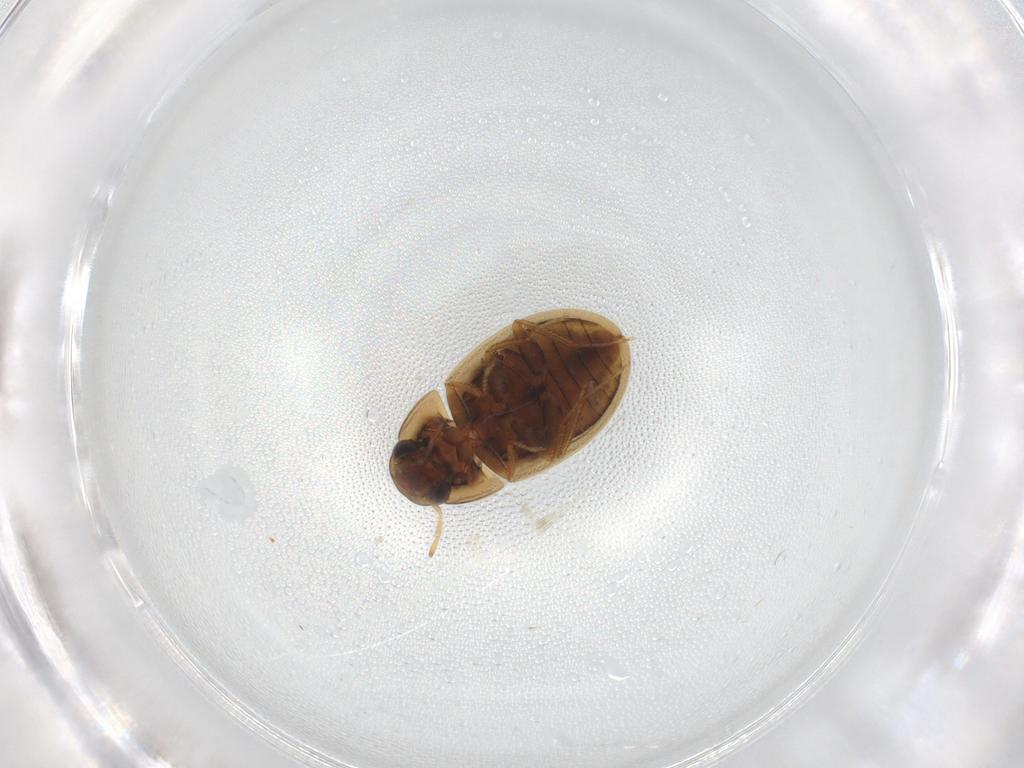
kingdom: Animalia
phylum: Arthropoda
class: Insecta
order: Coleoptera
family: Hydrophilidae
